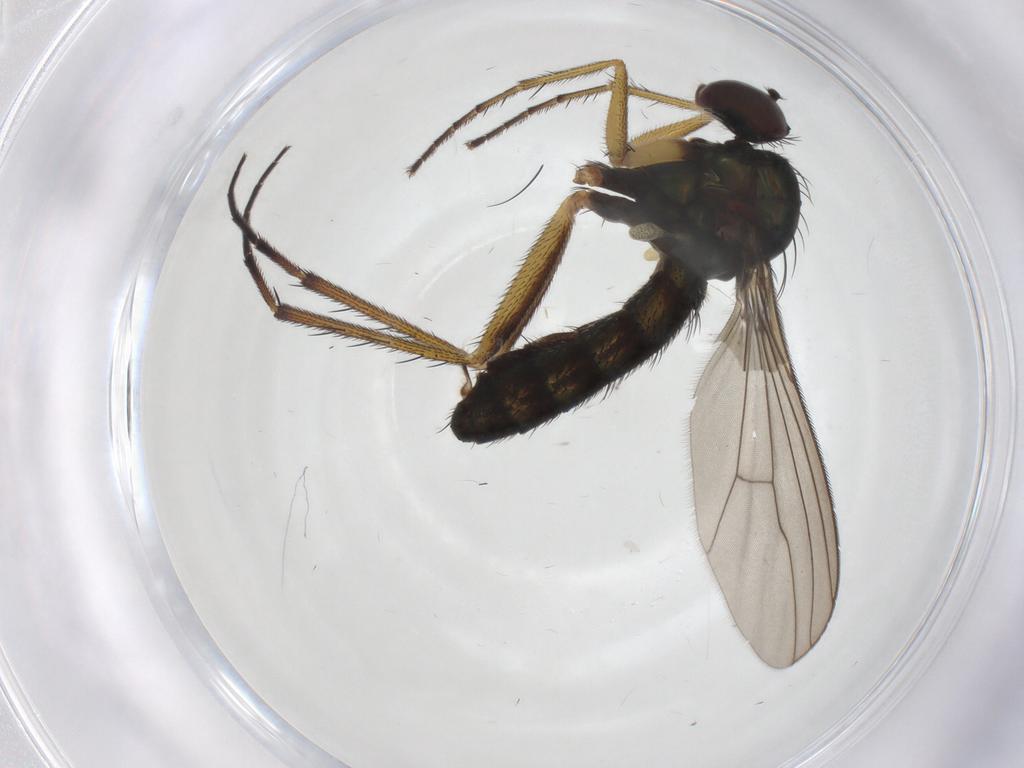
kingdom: Animalia
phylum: Arthropoda
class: Insecta
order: Diptera
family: Dolichopodidae
